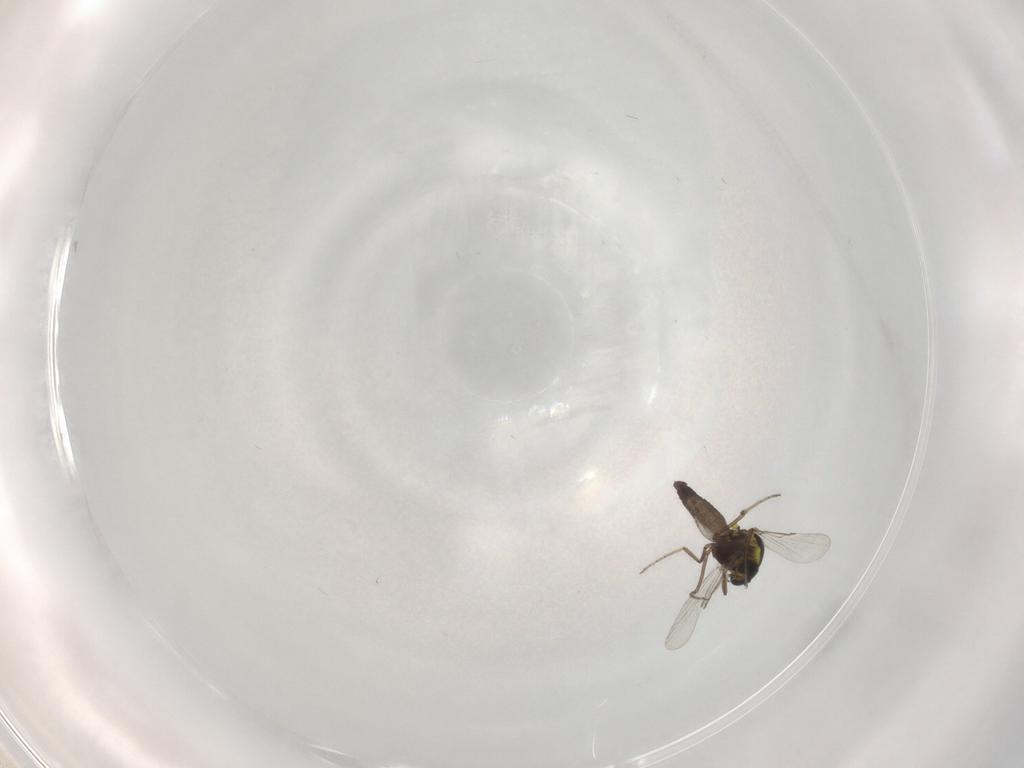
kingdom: Animalia
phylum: Arthropoda
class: Insecta
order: Diptera
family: Ceratopogonidae
